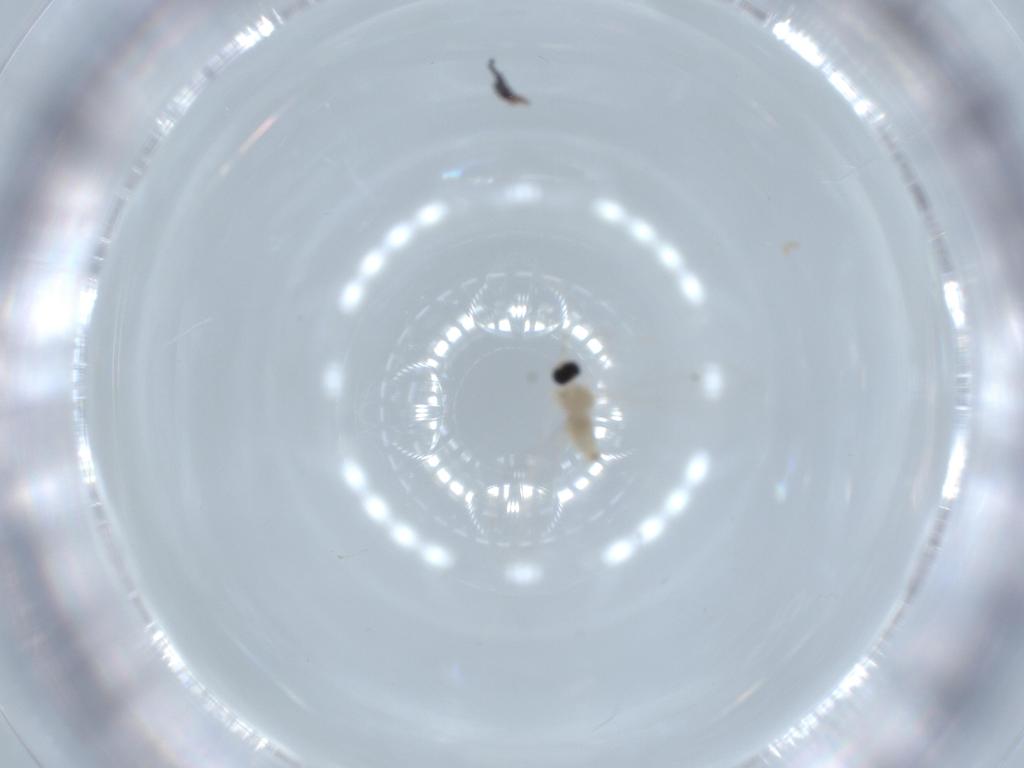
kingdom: Animalia
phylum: Arthropoda
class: Insecta
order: Diptera
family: Cecidomyiidae
